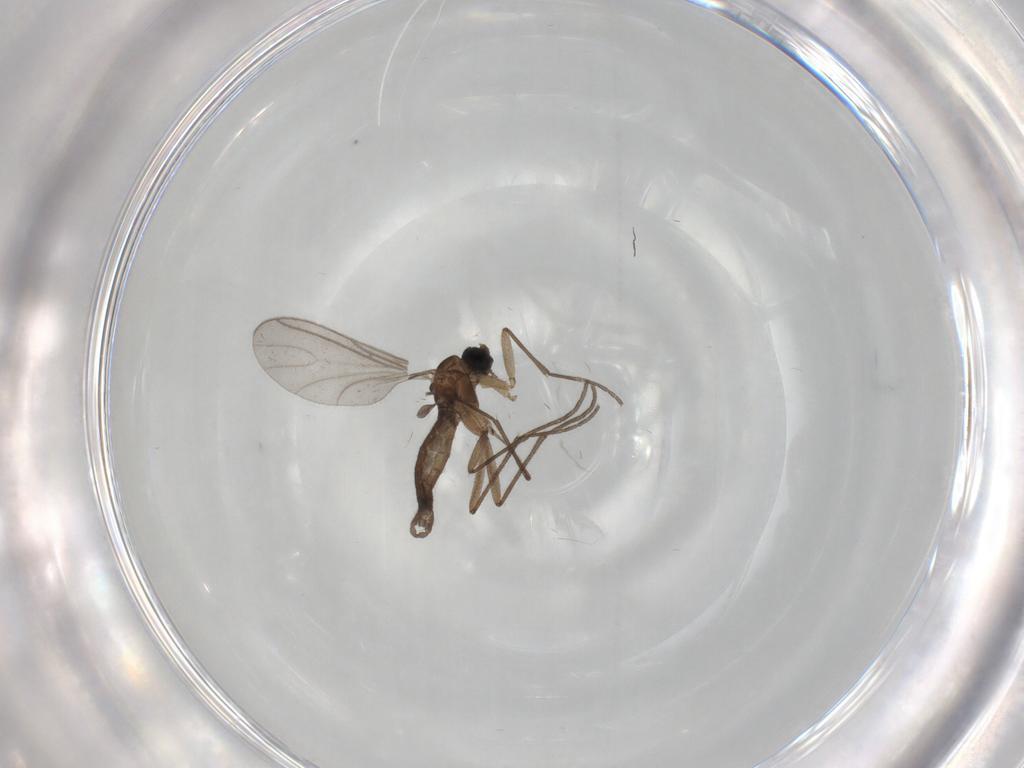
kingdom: Animalia
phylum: Arthropoda
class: Insecta
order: Diptera
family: Sciaridae
